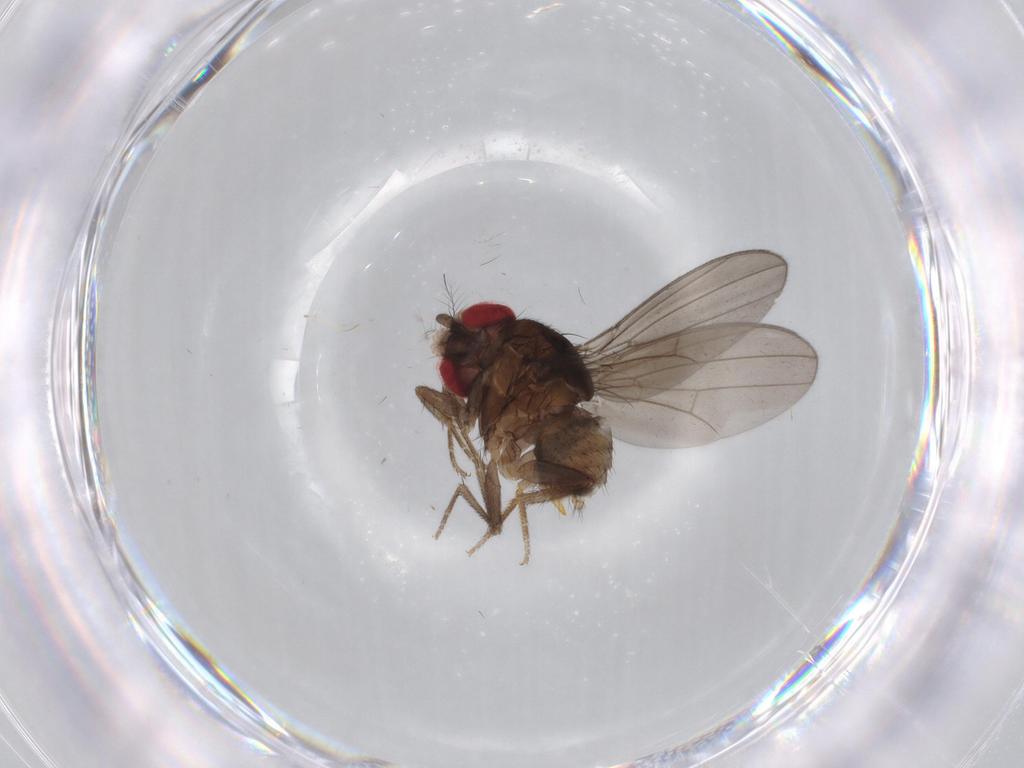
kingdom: Animalia
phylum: Arthropoda
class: Insecta
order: Diptera
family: Drosophilidae
